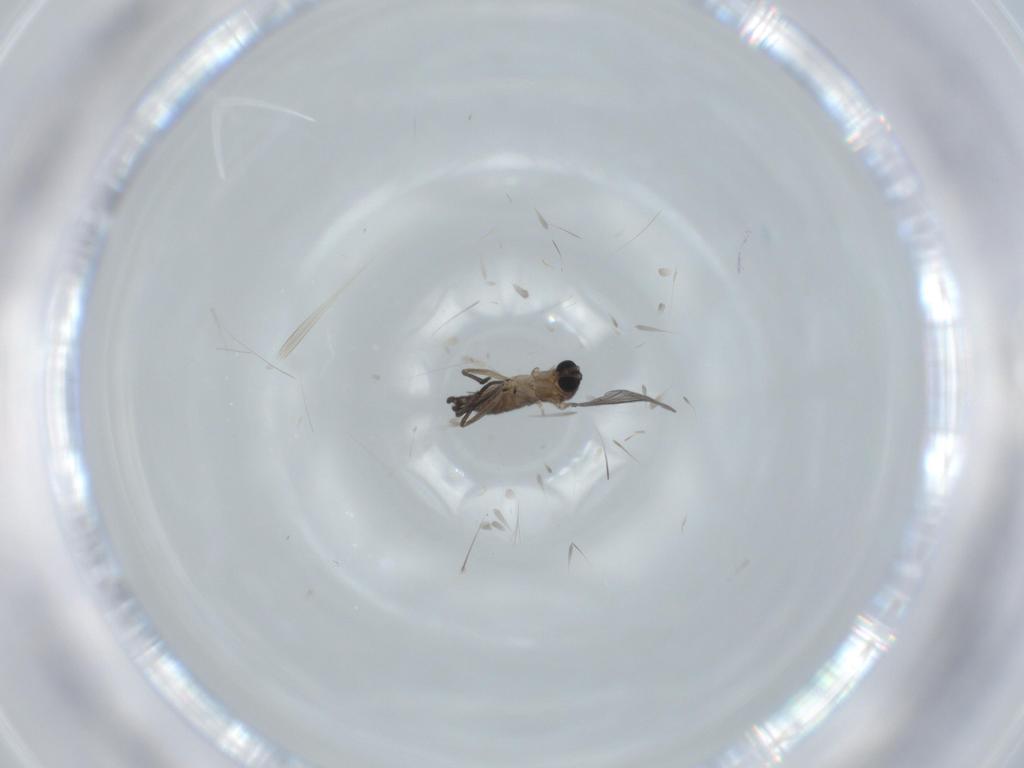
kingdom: Animalia
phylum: Arthropoda
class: Insecta
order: Diptera
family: Sciaridae
